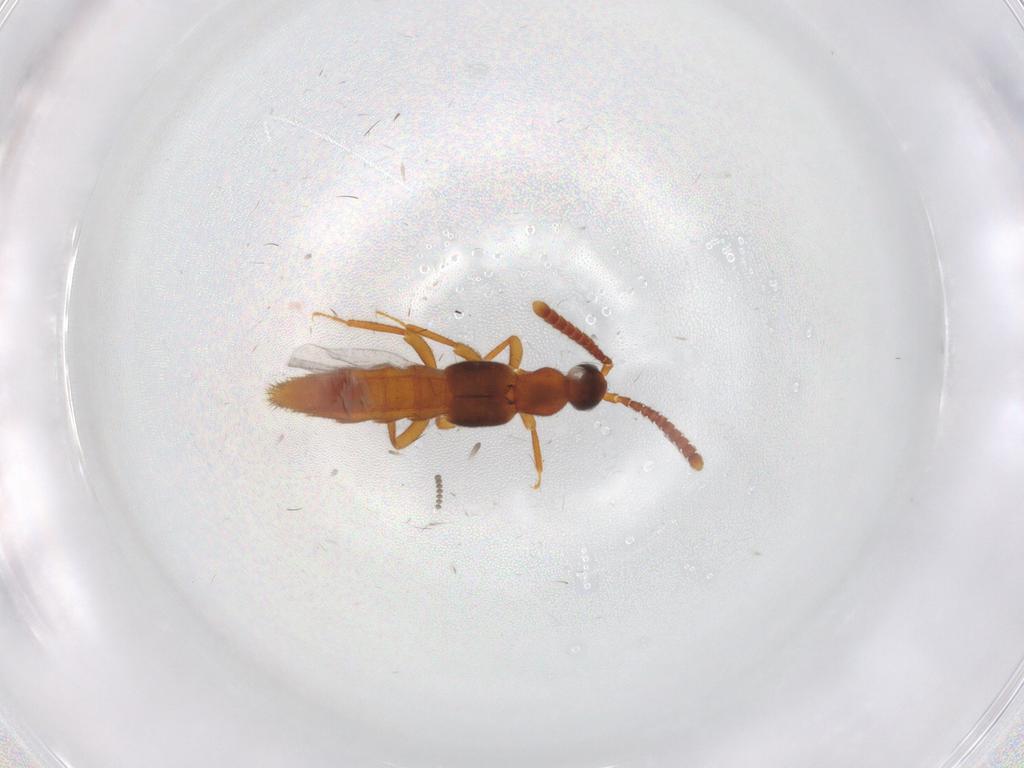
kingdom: Animalia
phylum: Arthropoda
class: Insecta
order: Coleoptera
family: Staphylinidae
